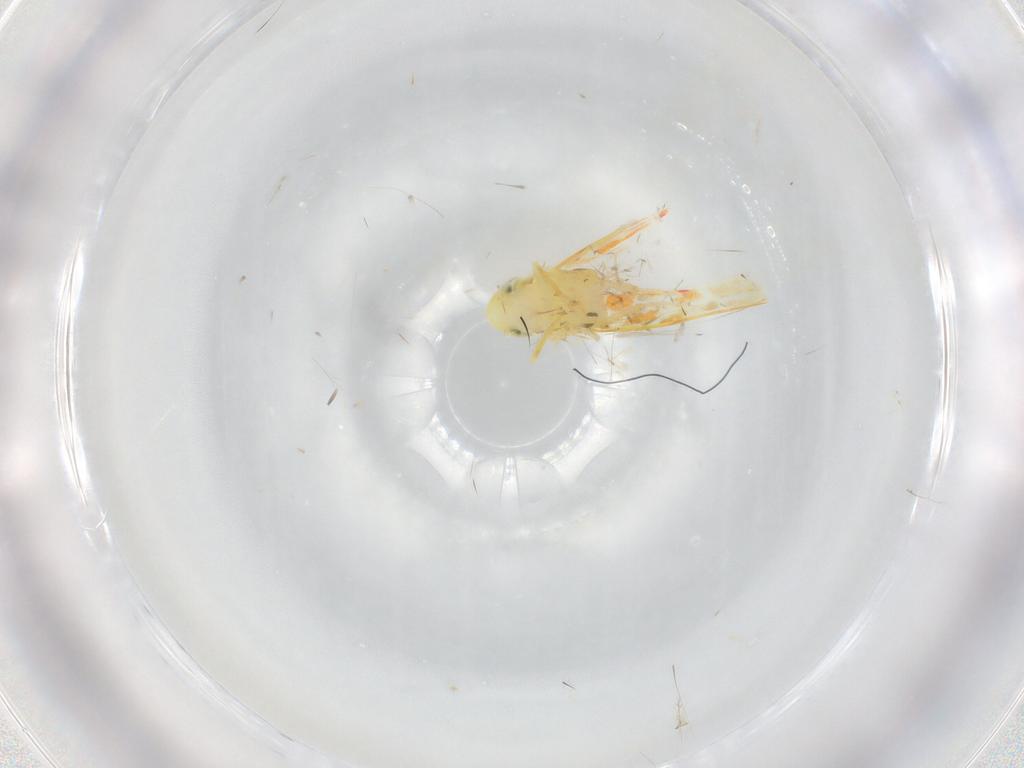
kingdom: Animalia
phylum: Arthropoda
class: Insecta
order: Hemiptera
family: Cicadellidae
